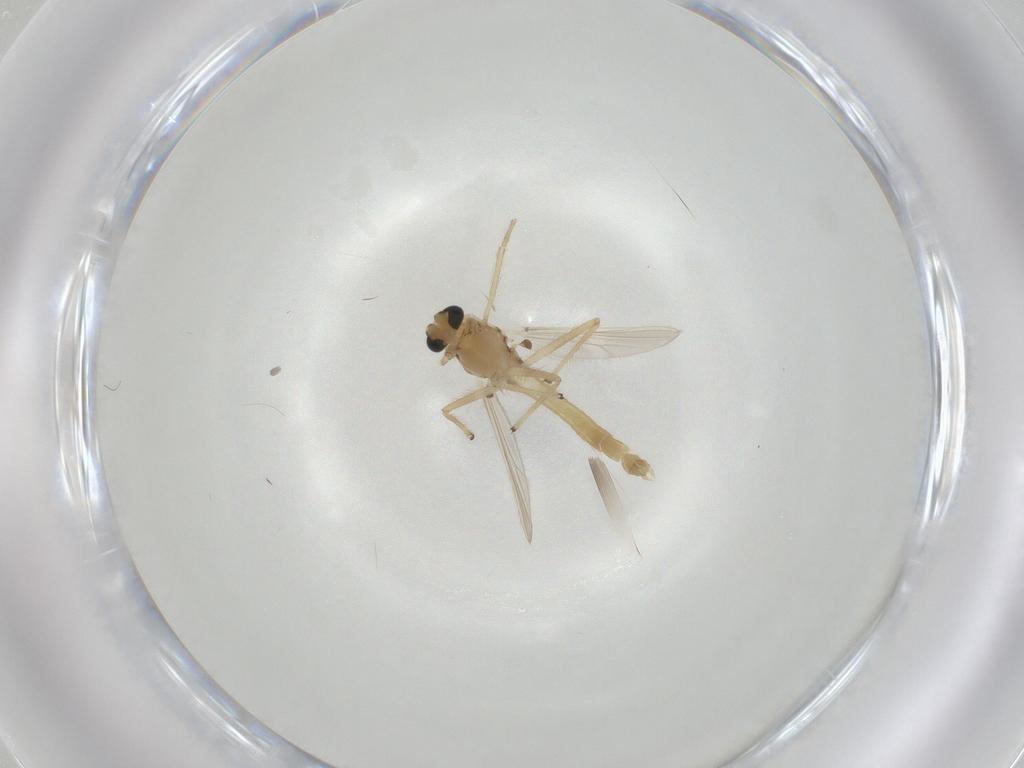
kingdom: Animalia
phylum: Arthropoda
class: Insecta
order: Diptera
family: Chironomidae
